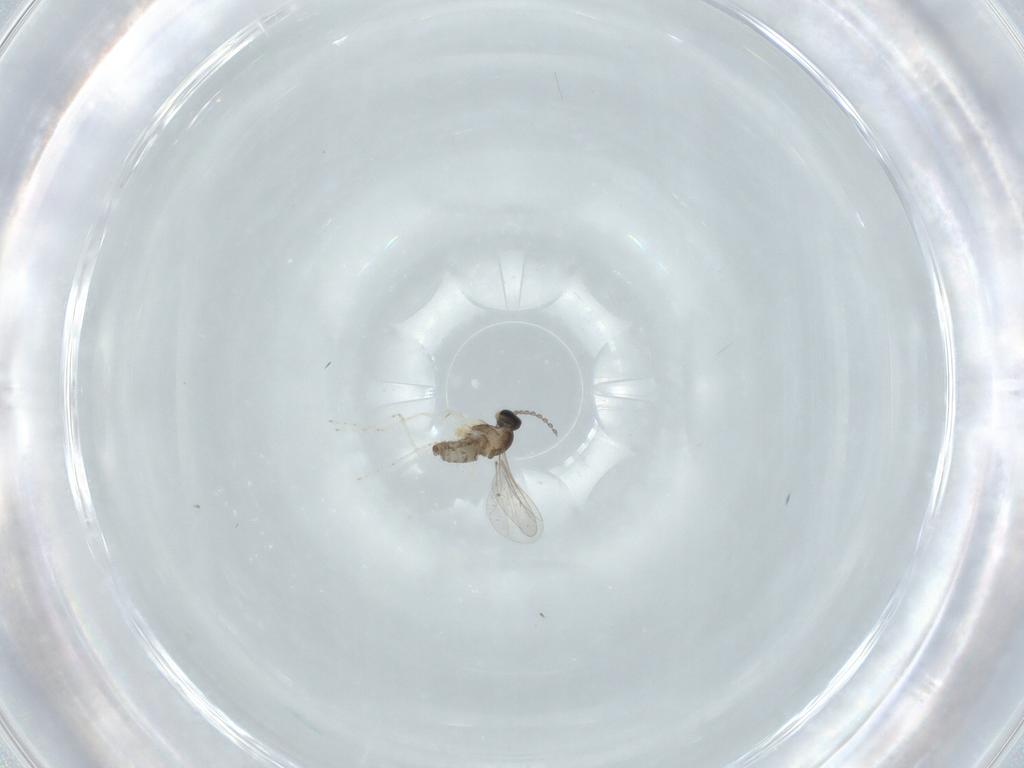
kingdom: Animalia
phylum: Arthropoda
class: Insecta
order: Diptera
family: Cecidomyiidae
